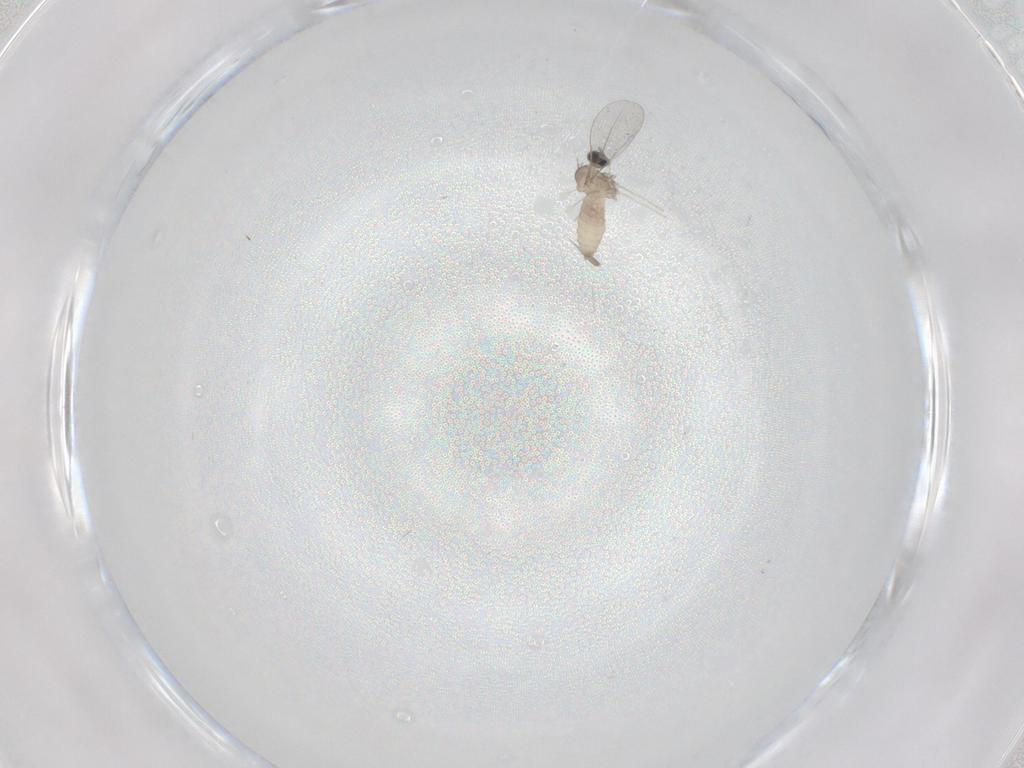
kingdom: Animalia
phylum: Arthropoda
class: Insecta
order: Diptera
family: Cecidomyiidae
